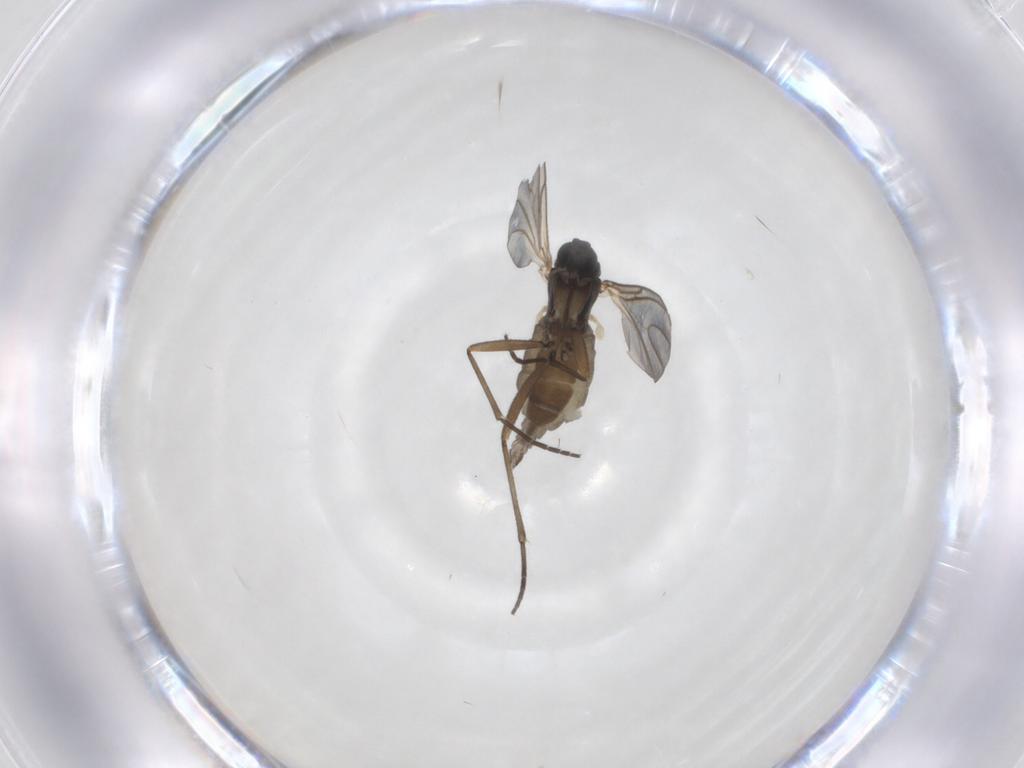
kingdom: Animalia
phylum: Arthropoda
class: Insecta
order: Diptera
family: Sciaridae
